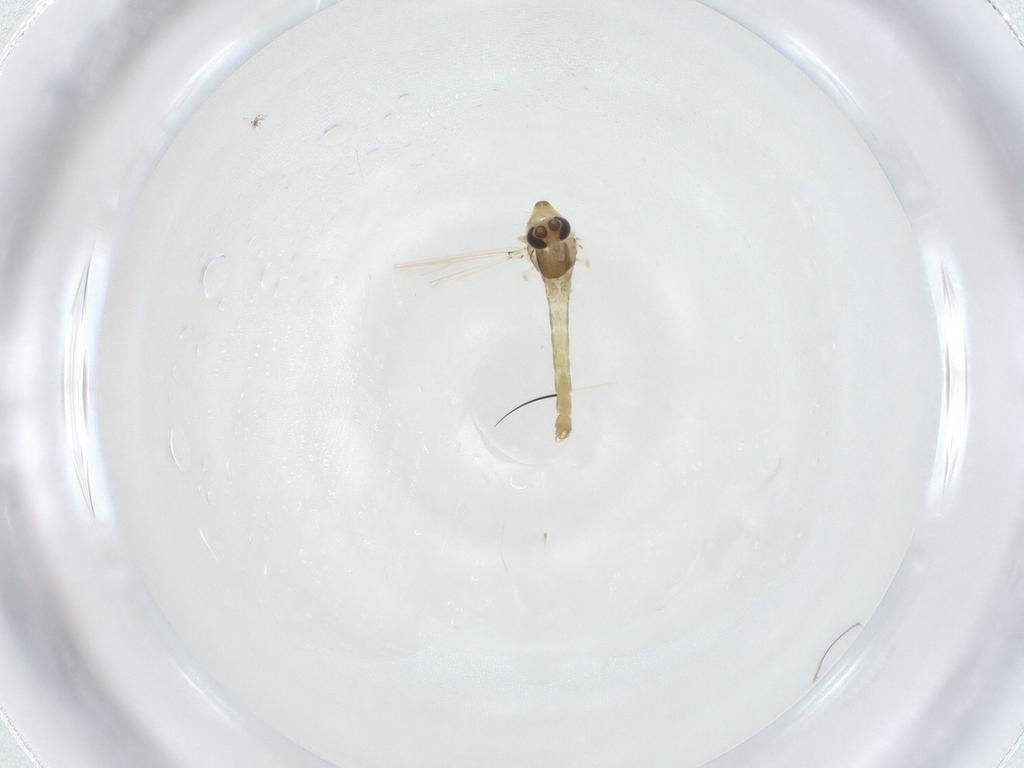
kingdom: Animalia
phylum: Arthropoda
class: Insecta
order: Diptera
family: Chironomidae
